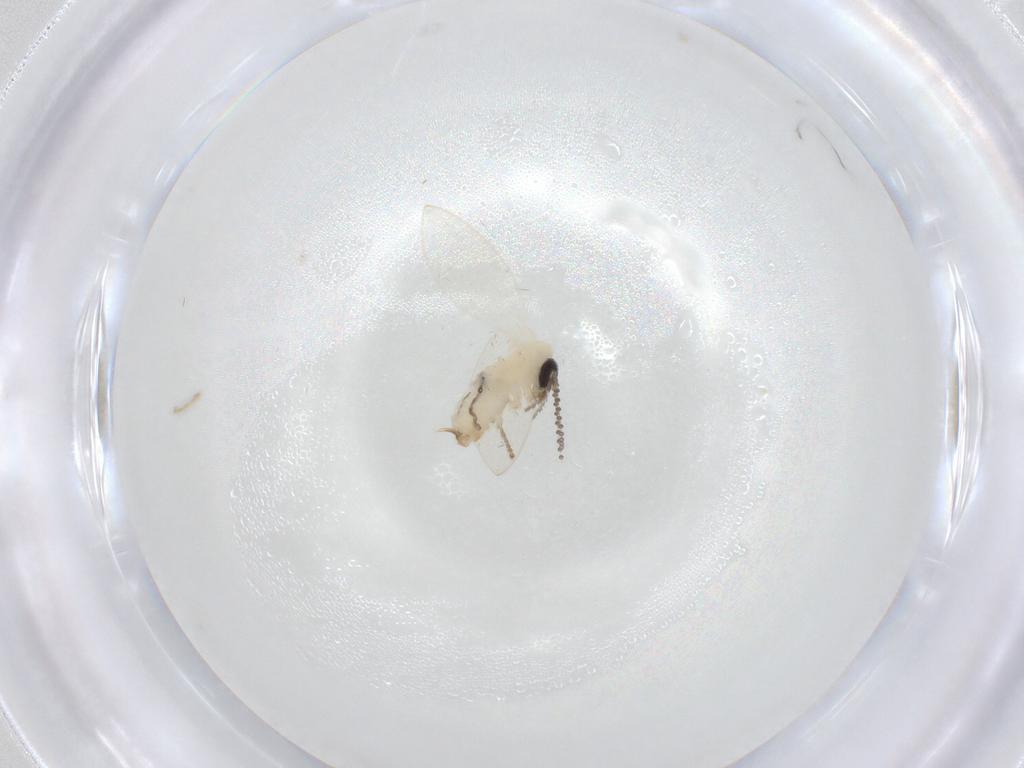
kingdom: Animalia
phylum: Arthropoda
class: Insecta
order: Diptera
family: Psychodidae
